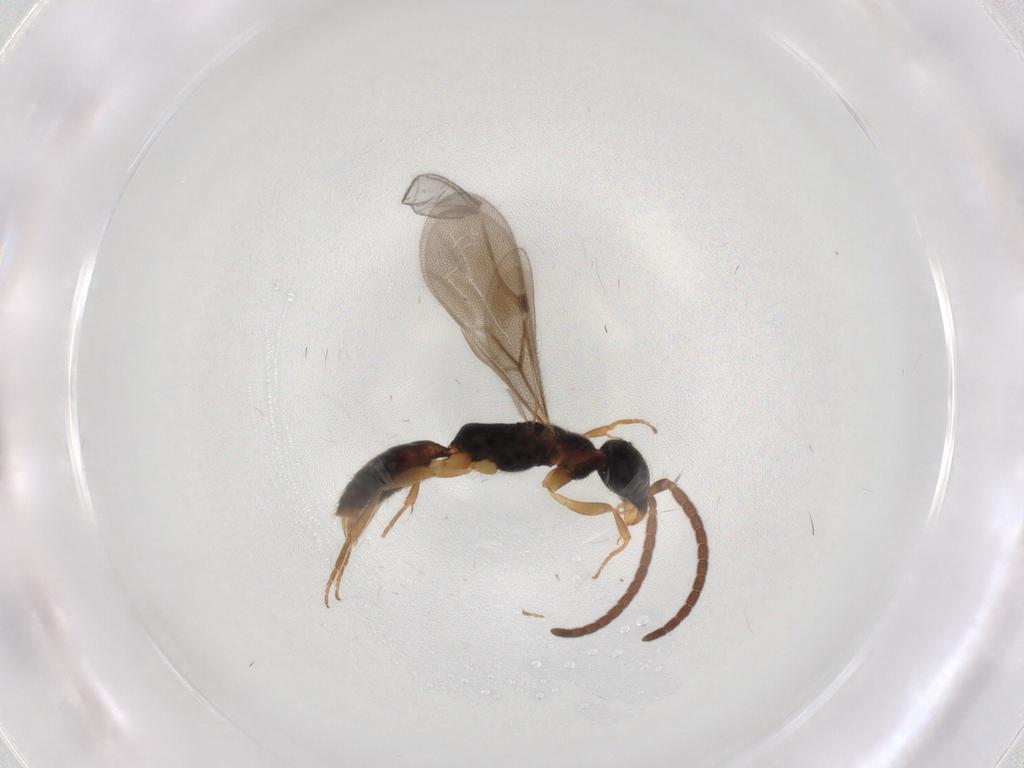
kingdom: Animalia
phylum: Arthropoda
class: Insecta
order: Hymenoptera
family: Bethylidae
